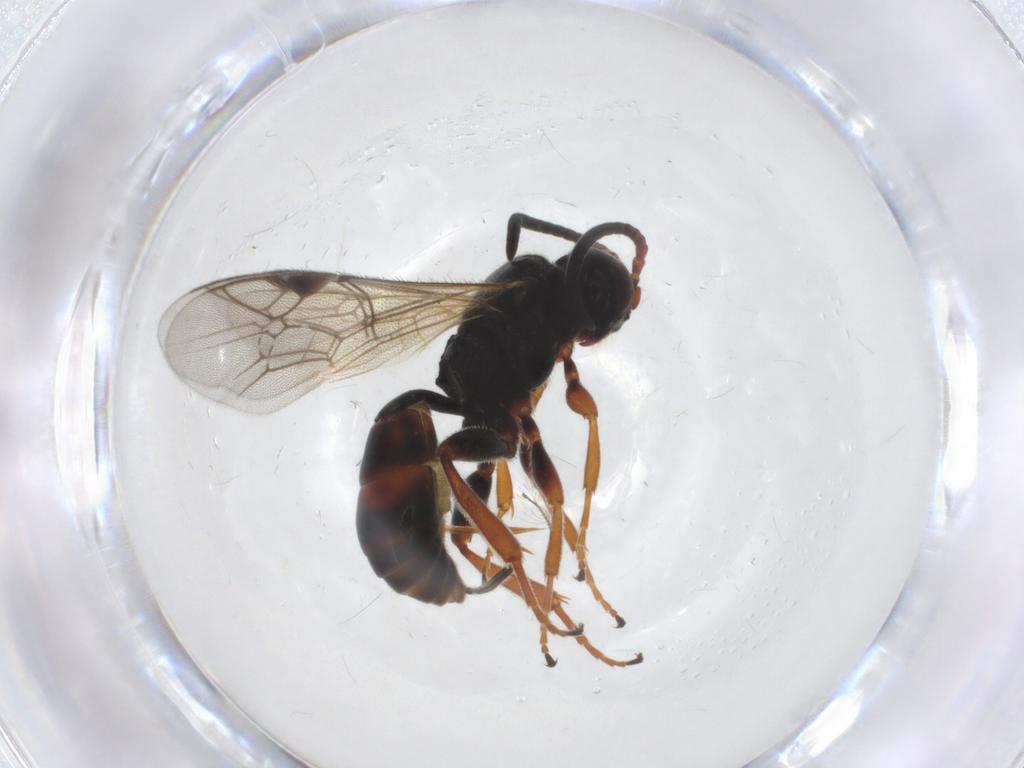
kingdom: Animalia
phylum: Arthropoda
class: Insecta
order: Hymenoptera
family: Ichneumonidae
